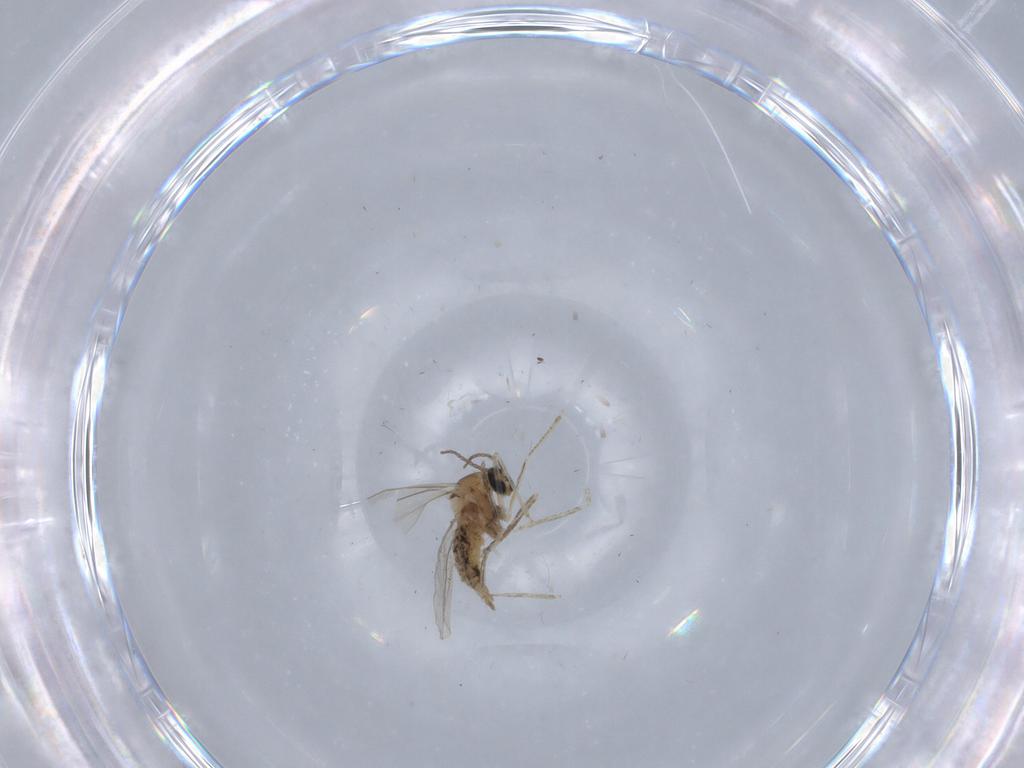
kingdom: Animalia
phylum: Arthropoda
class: Insecta
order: Diptera
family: Cecidomyiidae
